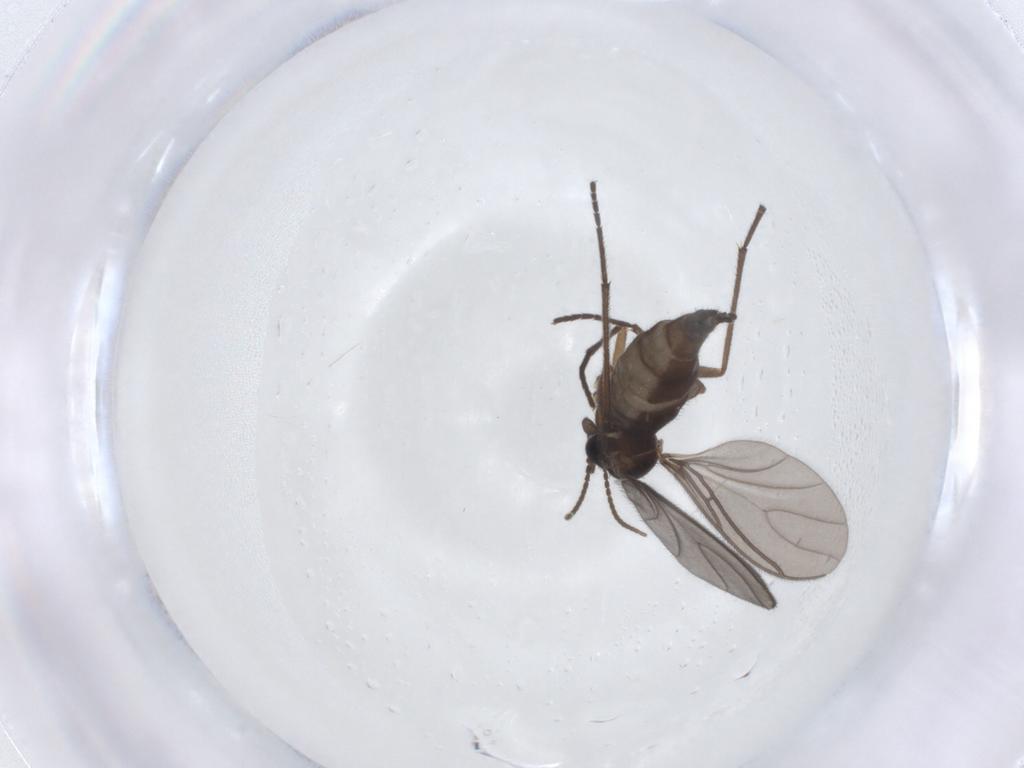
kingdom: Animalia
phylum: Arthropoda
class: Insecta
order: Diptera
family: Sciaridae
